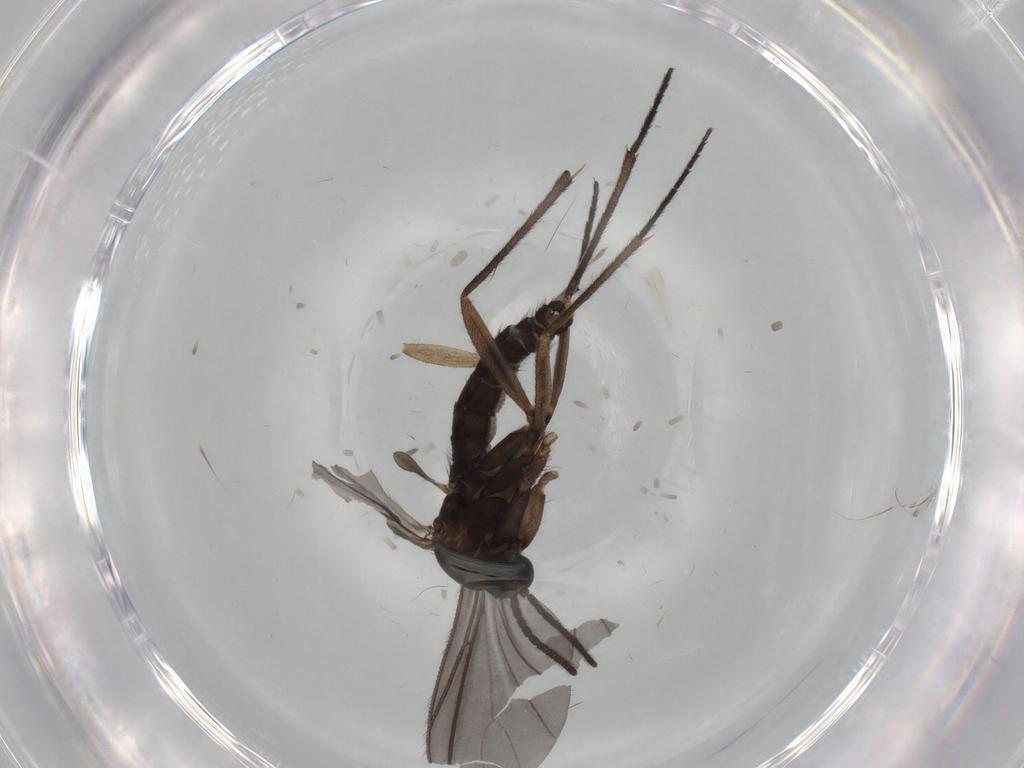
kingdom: Animalia
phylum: Arthropoda
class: Insecta
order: Diptera
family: Sciaridae
